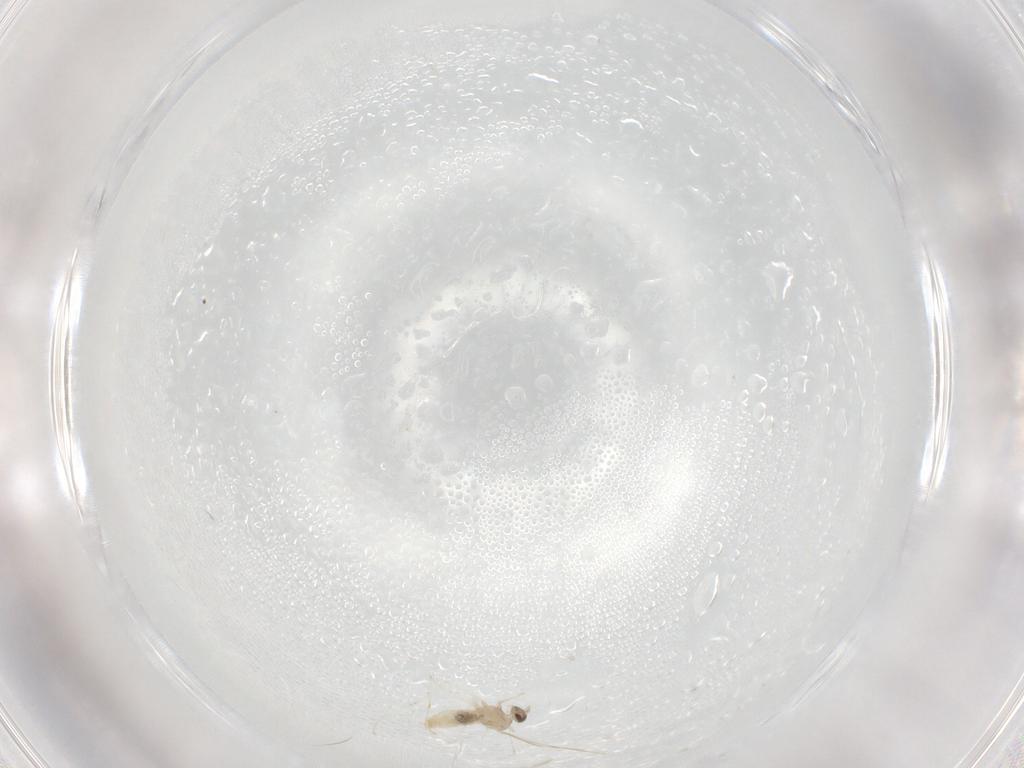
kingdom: Animalia
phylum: Arthropoda
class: Insecta
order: Diptera
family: Cecidomyiidae
